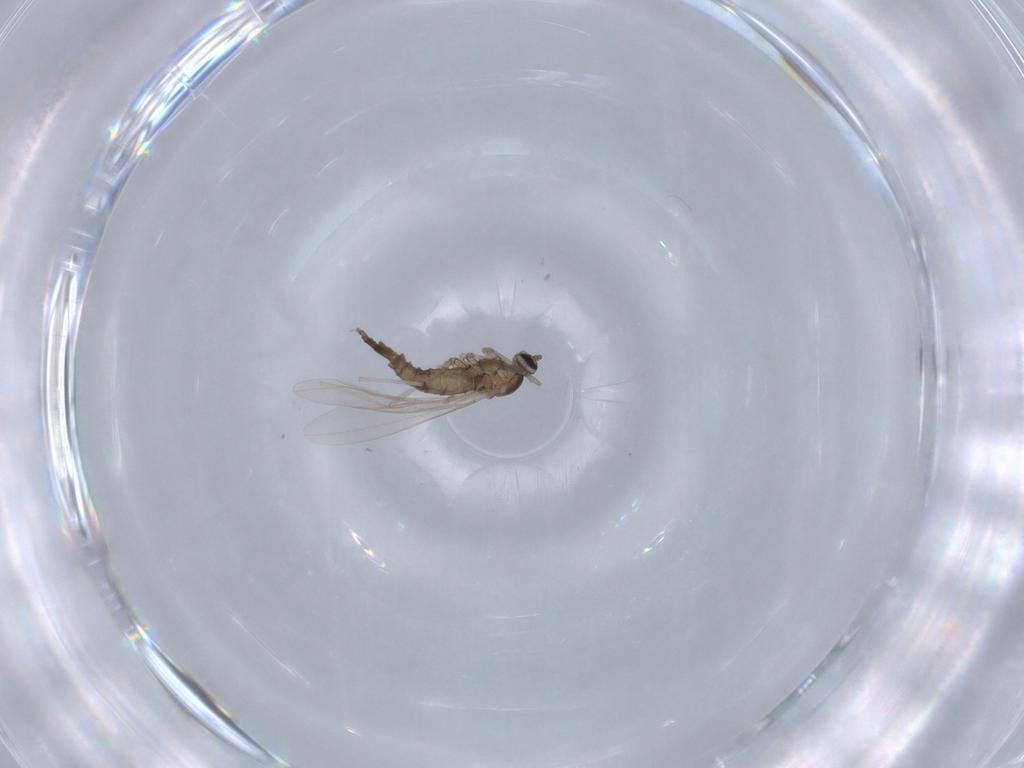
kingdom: Animalia
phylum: Arthropoda
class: Insecta
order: Diptera
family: Cecidomyiidae
